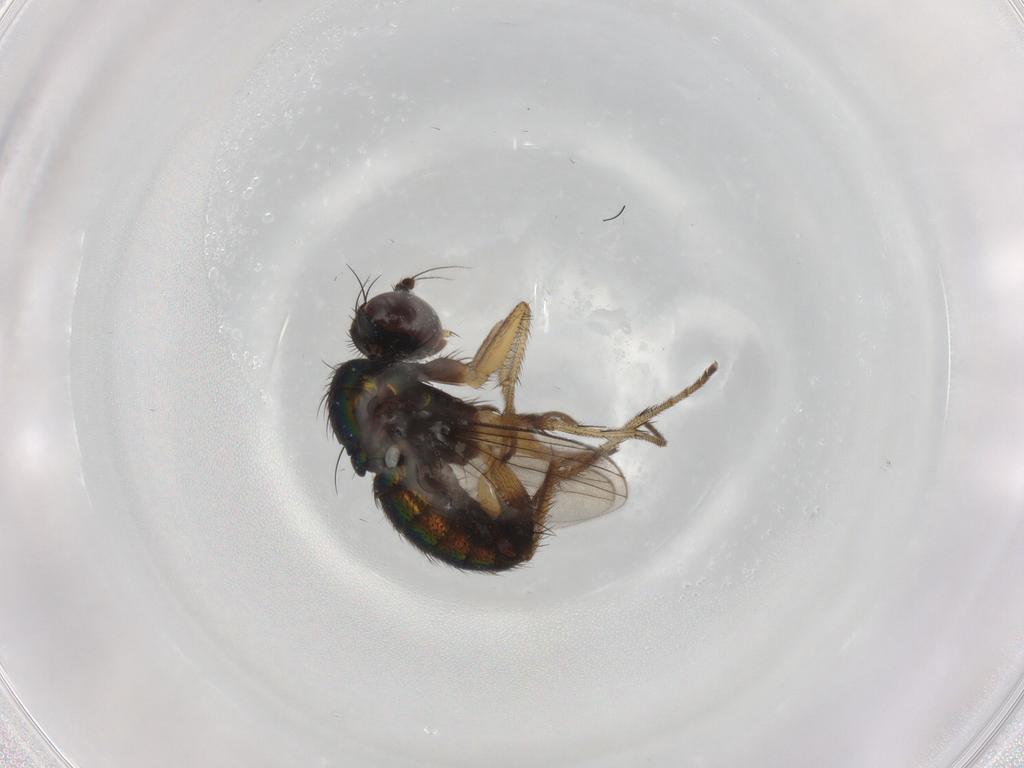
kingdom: Animalia
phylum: Arthropoda
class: Insecta
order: Diptera
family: Dolichopodidae
